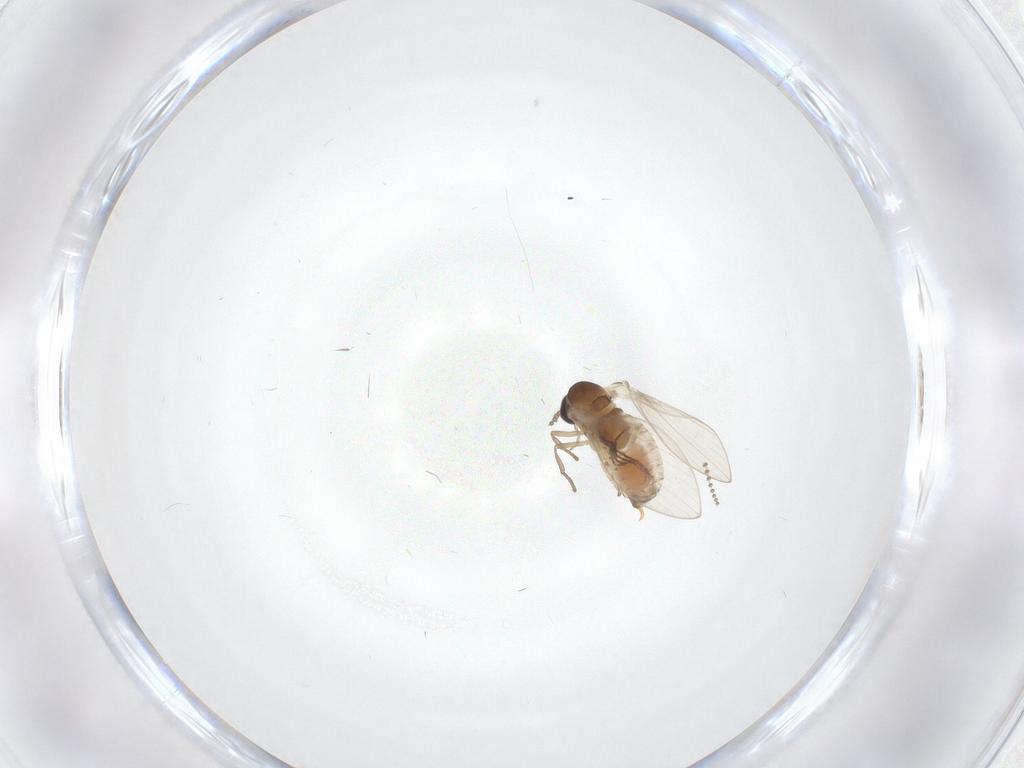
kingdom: Animalia
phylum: Arthropoda
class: Insecta
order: Diptera
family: Psychodidae
